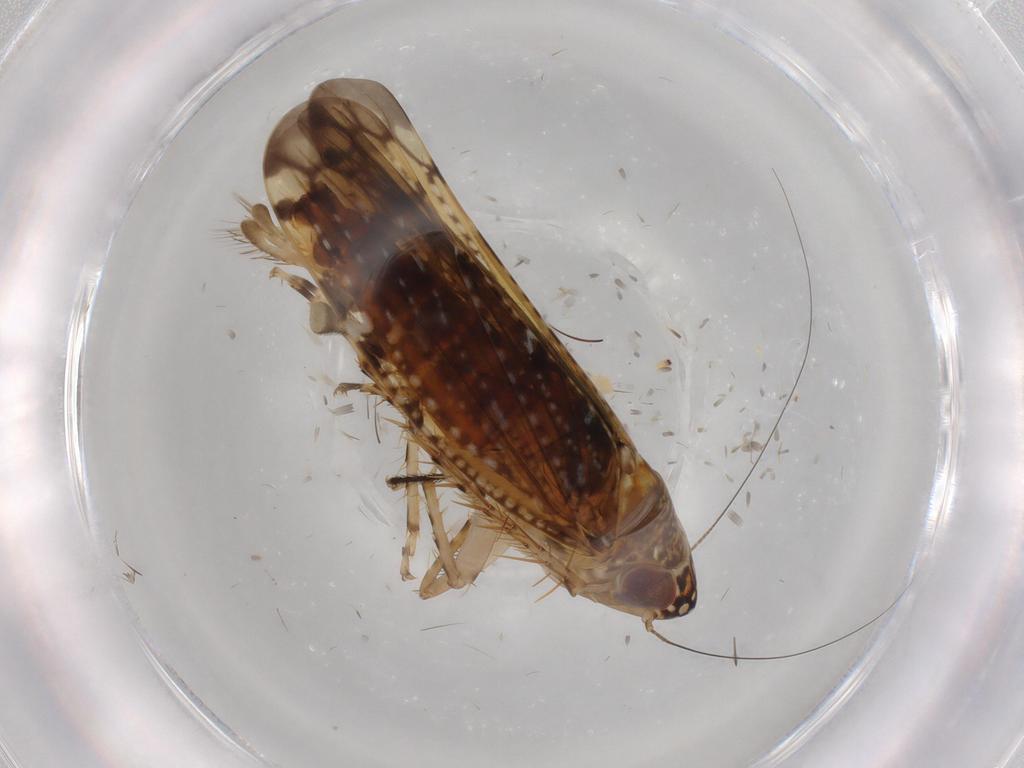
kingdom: Animalia
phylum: Arthropoda
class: Insecta
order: Hemiptera
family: Cicadellidae
